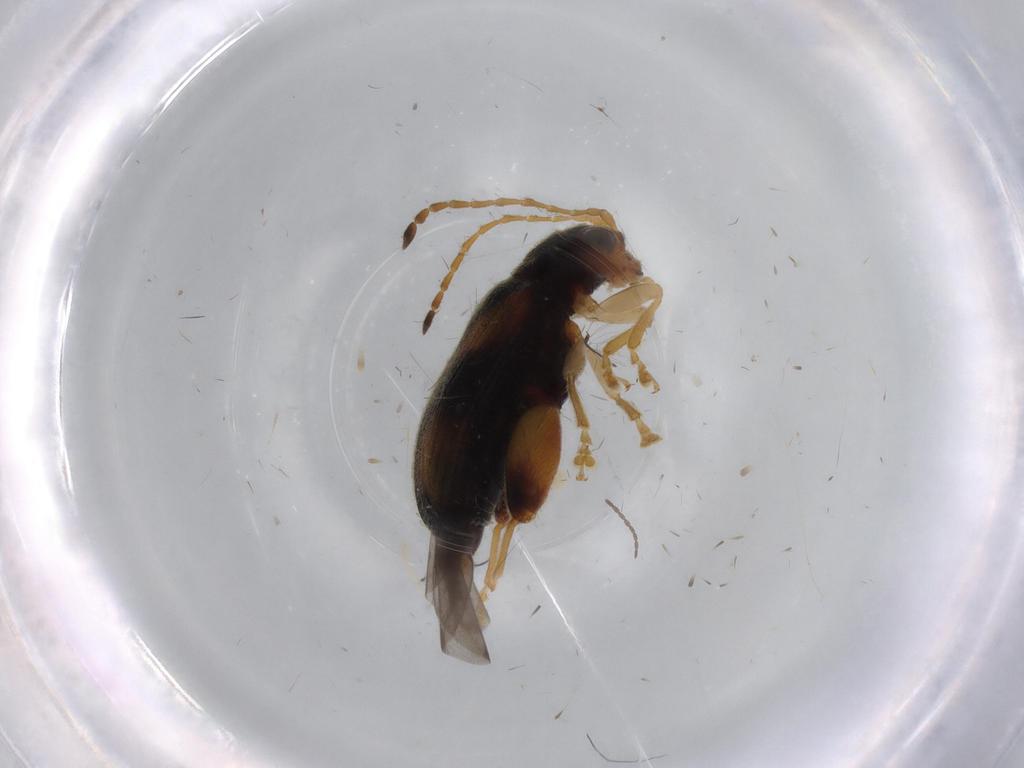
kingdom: Animalia
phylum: Arthropoda
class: Insecta
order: Coleoptera
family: Chrysomelidae
